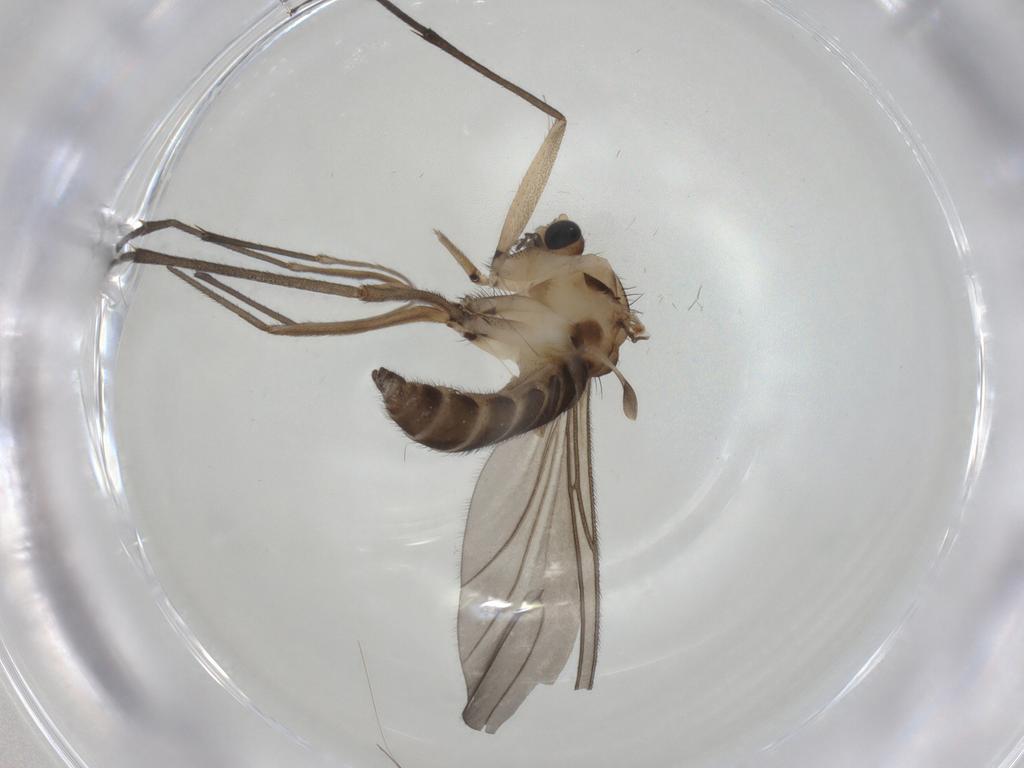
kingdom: Animalia
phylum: Arthropoda
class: Insecta
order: Diptera
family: Sciaridae
